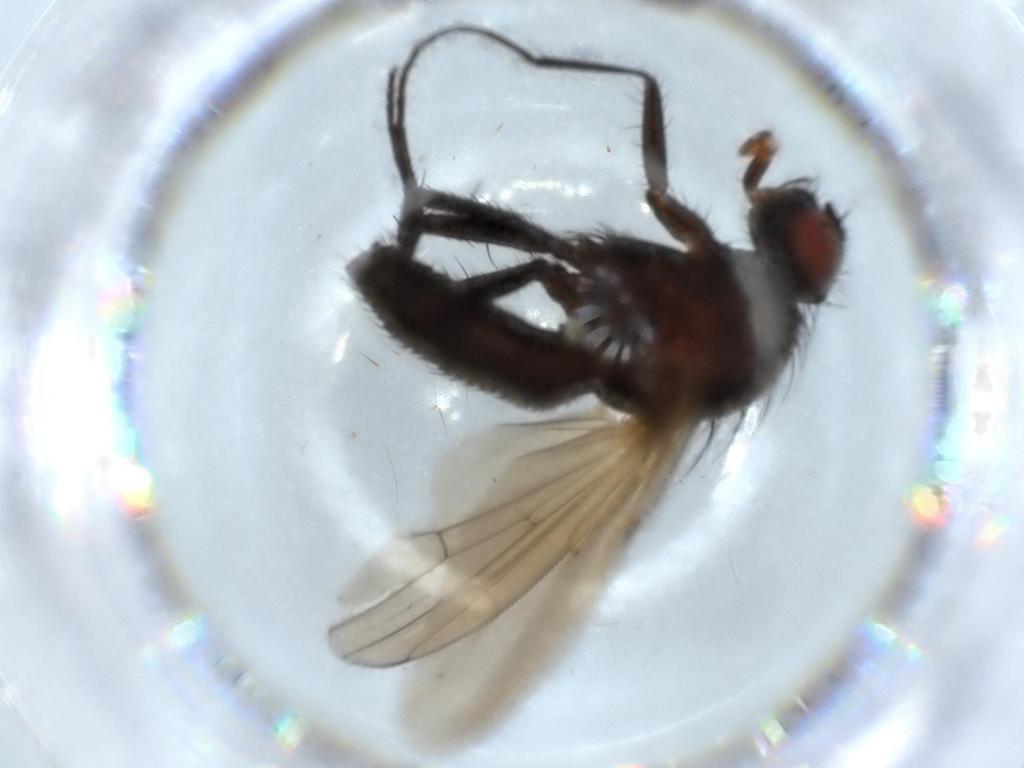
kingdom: Animalia
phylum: Arthropoda
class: Insecta
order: Diptera
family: Anthomyiidae
